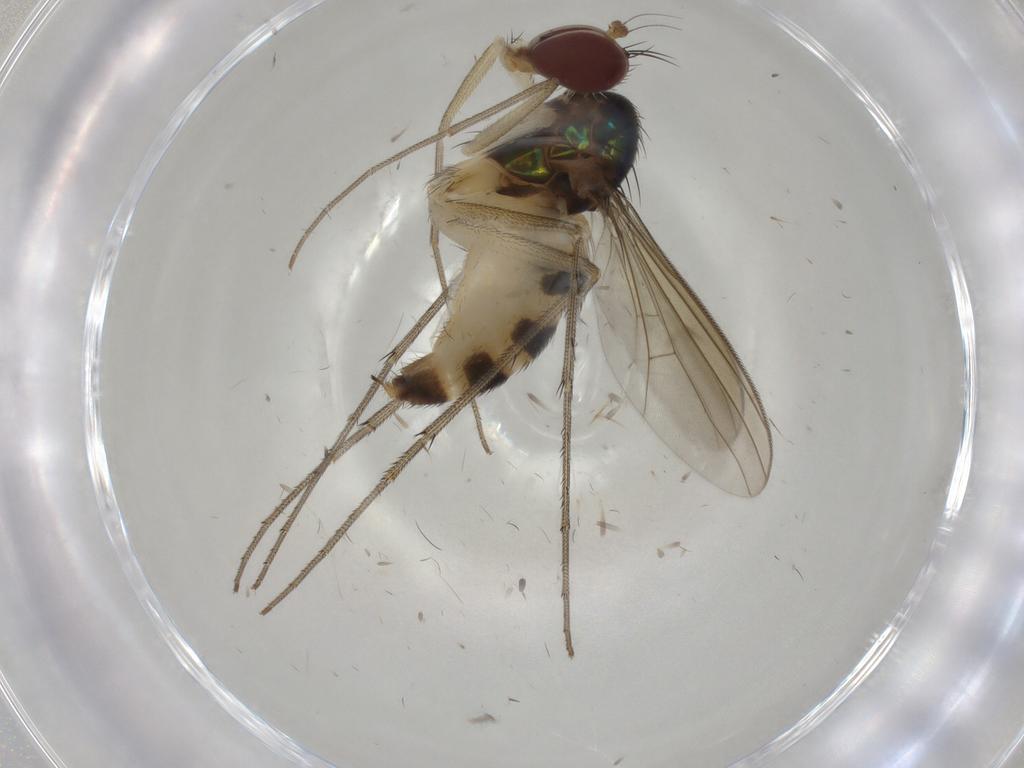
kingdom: Animalia
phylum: Arthropoda
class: Insecta
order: Diptera
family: Dolichopodidae
